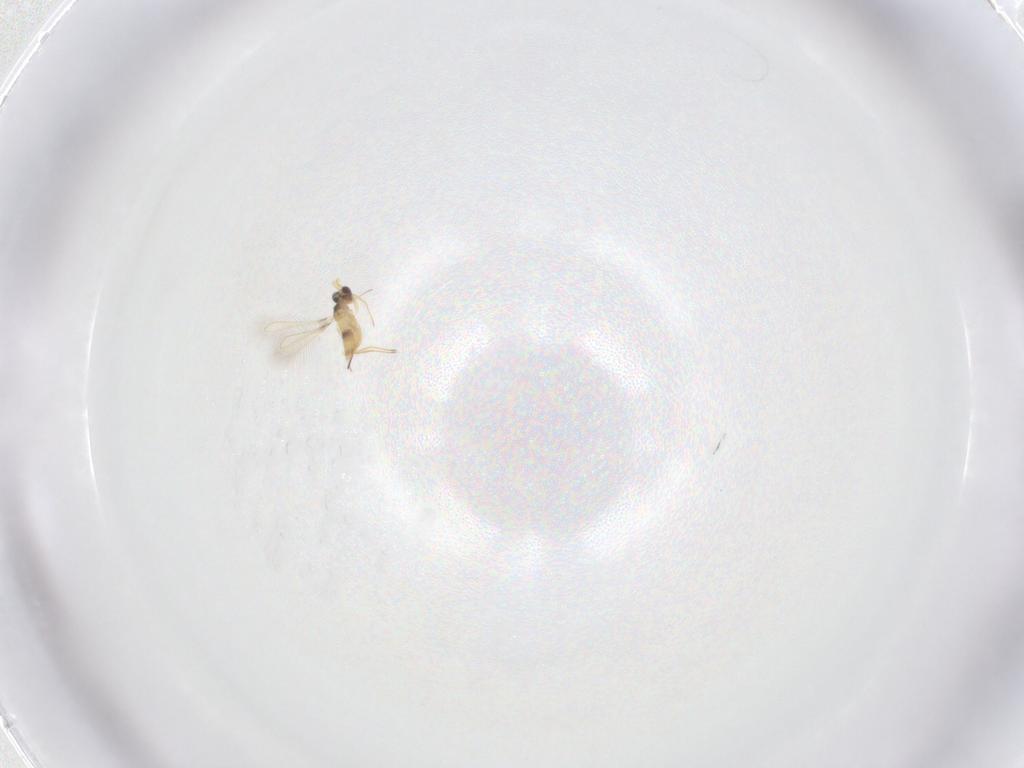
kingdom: Animalia
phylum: Arthropoda
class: Insecta
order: Hymenoptera
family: Mymaridae
